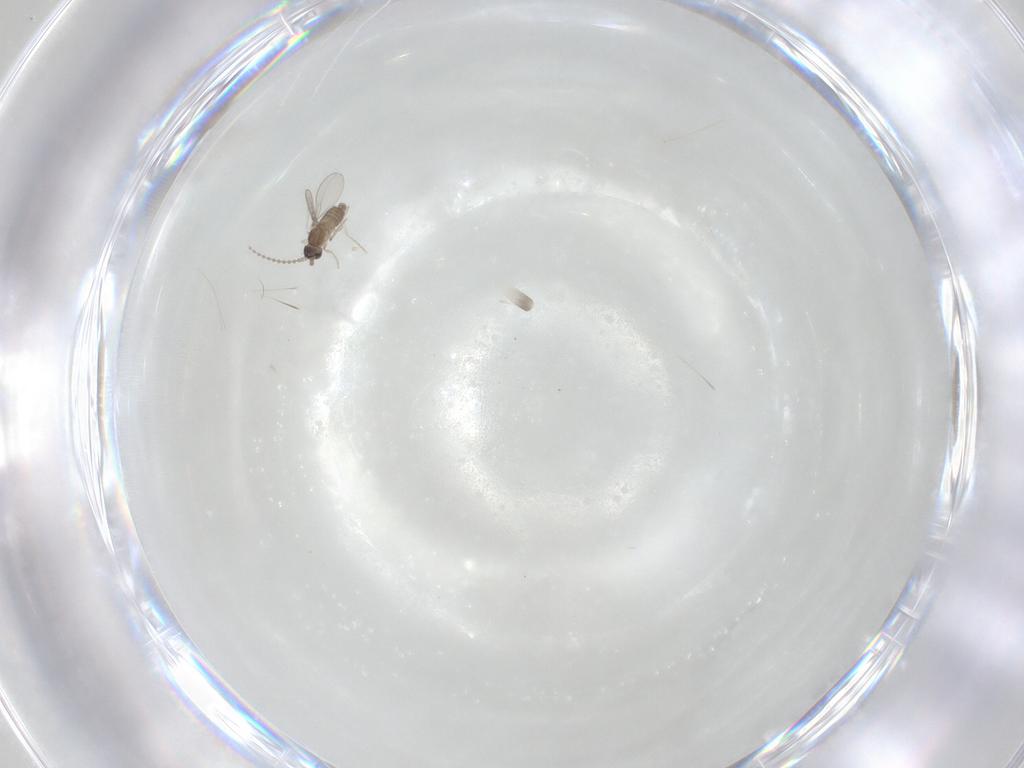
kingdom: Animalia
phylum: Arthropoda
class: Insecta
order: Diptera
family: Cecidomyiidae
